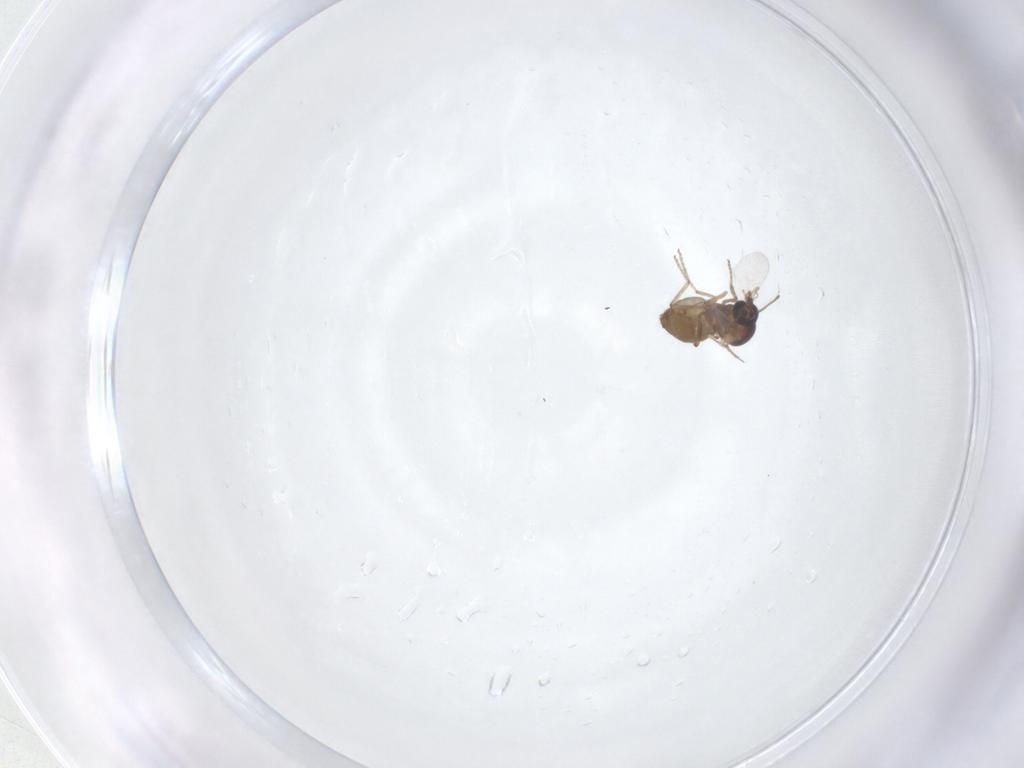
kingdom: Animalia
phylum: Arthropoda
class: Insecta
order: Diptera
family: Ceratopogonidae
